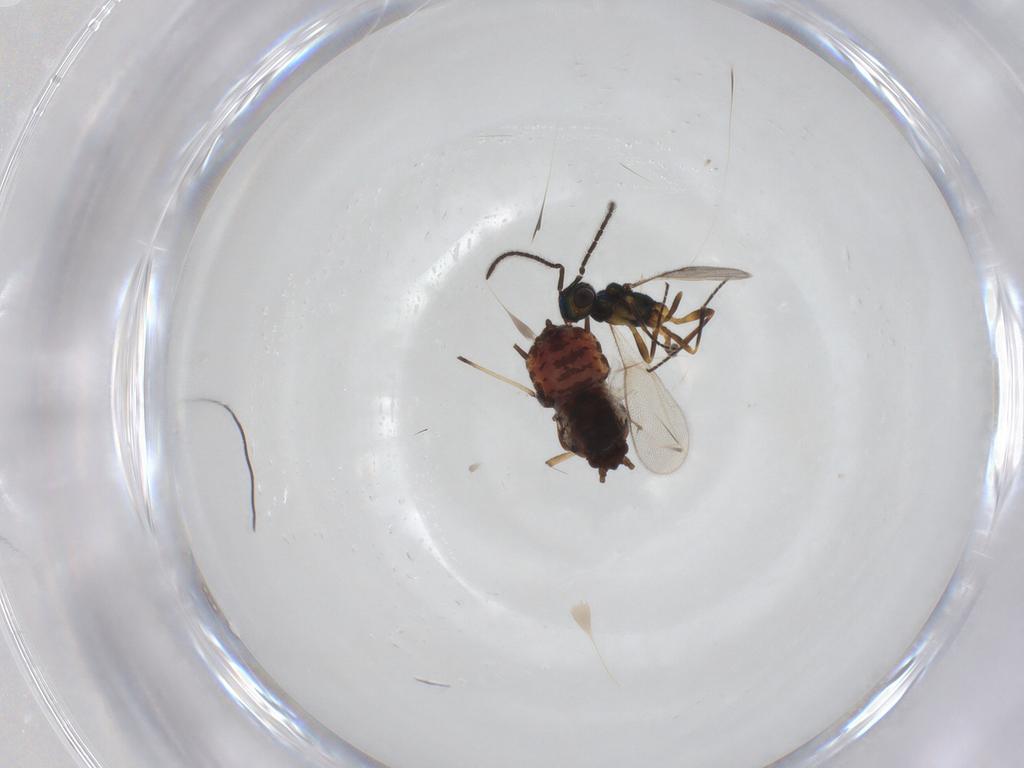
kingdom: Animalia
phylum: Arthropoda
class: Insecta
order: Hemiptera
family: Aphididae
